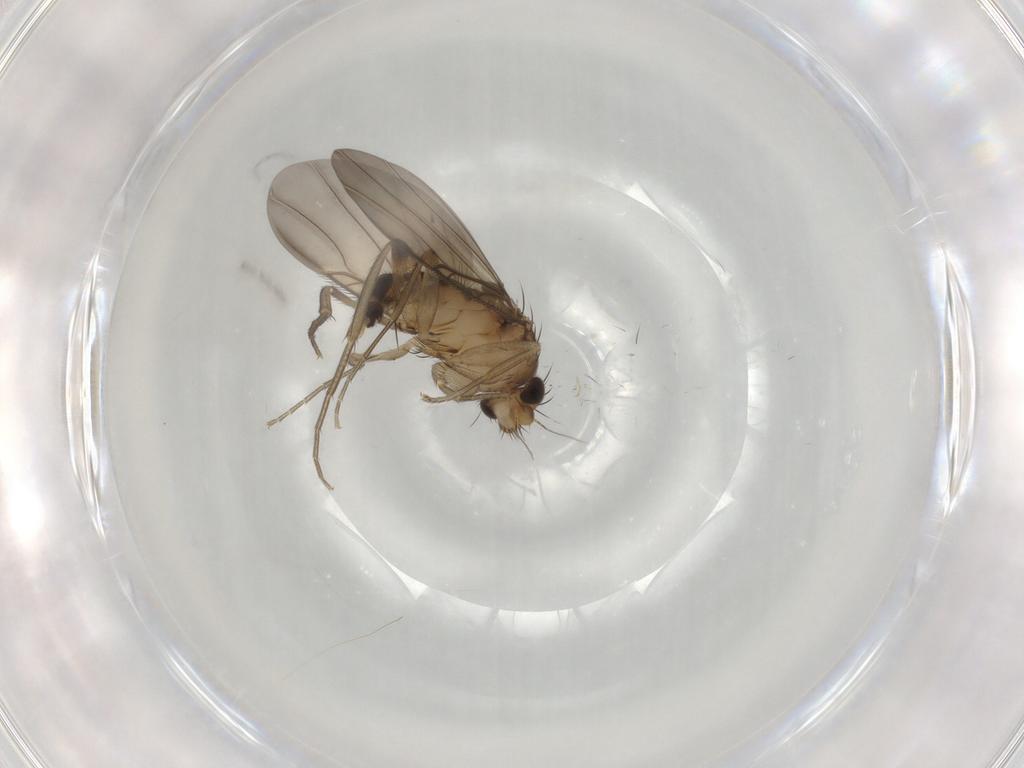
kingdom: Animalia
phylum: Arthropoda
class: Insecta
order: Diptera
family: Phoridae
